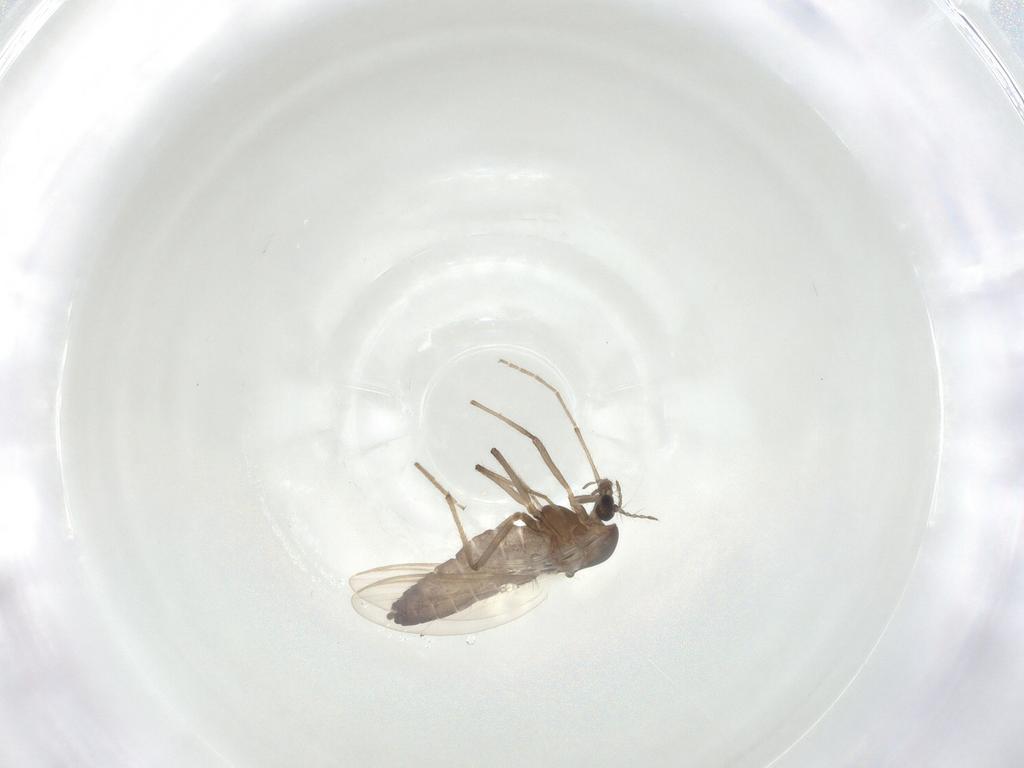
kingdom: Animalia
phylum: Arthropoda
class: Insecta
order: Diptera
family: Chironomidae
